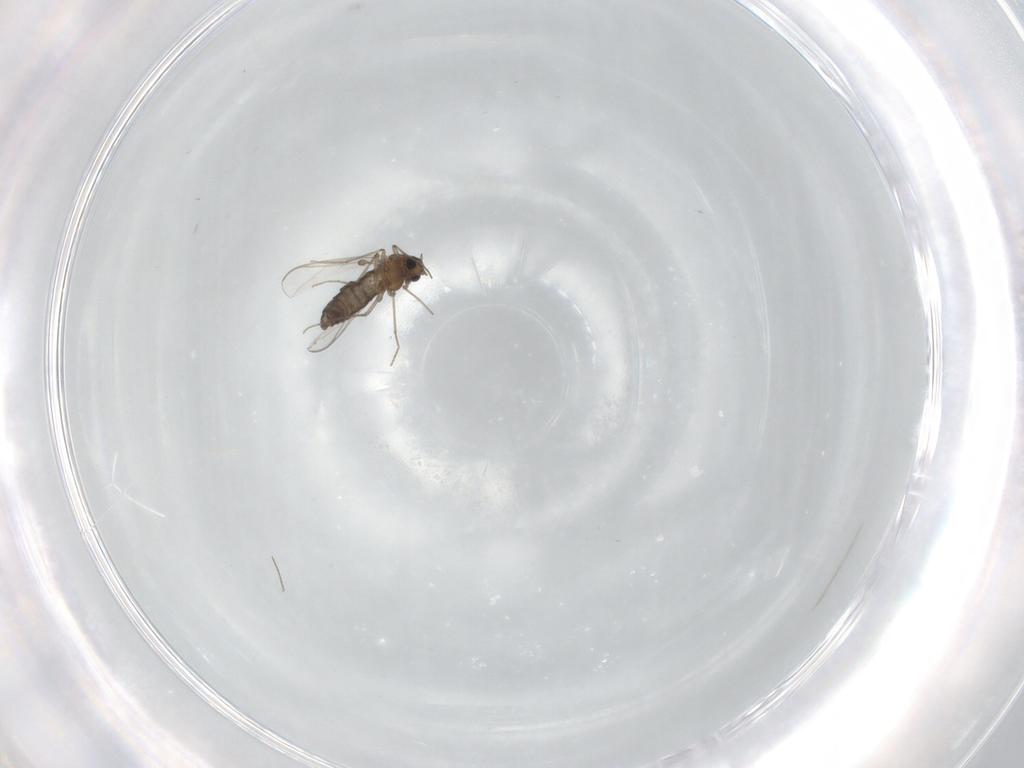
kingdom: Animalia
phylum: Arthropoda
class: Insecta
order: Diptera
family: Chironomidae
